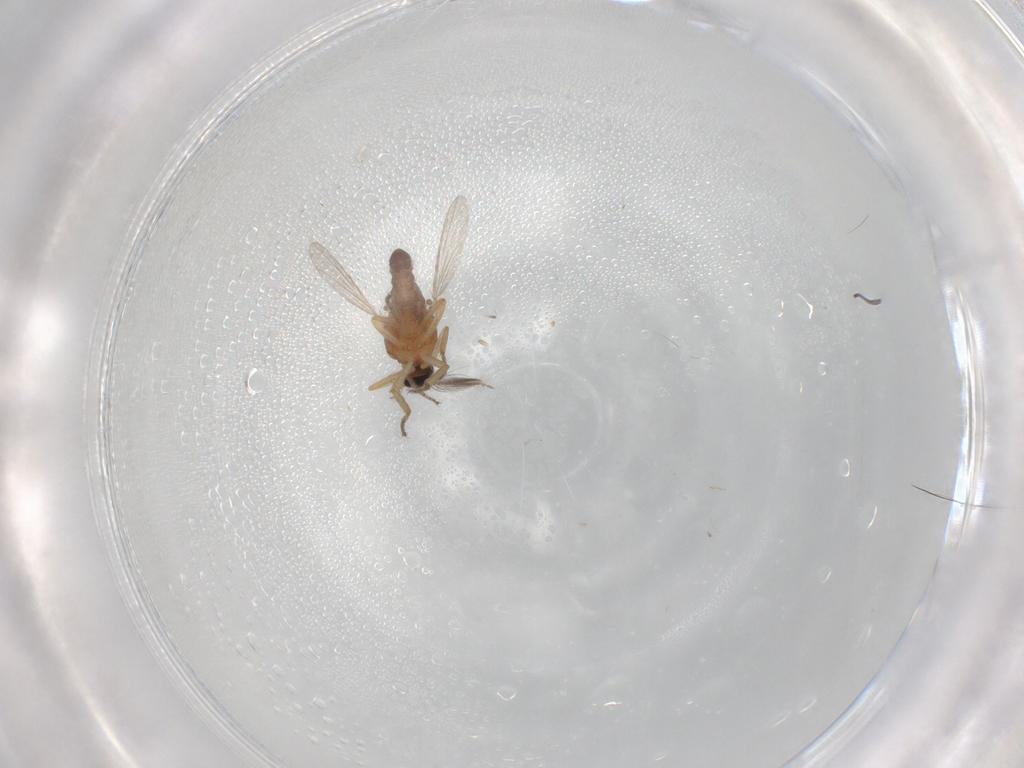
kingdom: Animalia
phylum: Arthropoda
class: Insecta
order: Diptera
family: Ceratopogonidae
